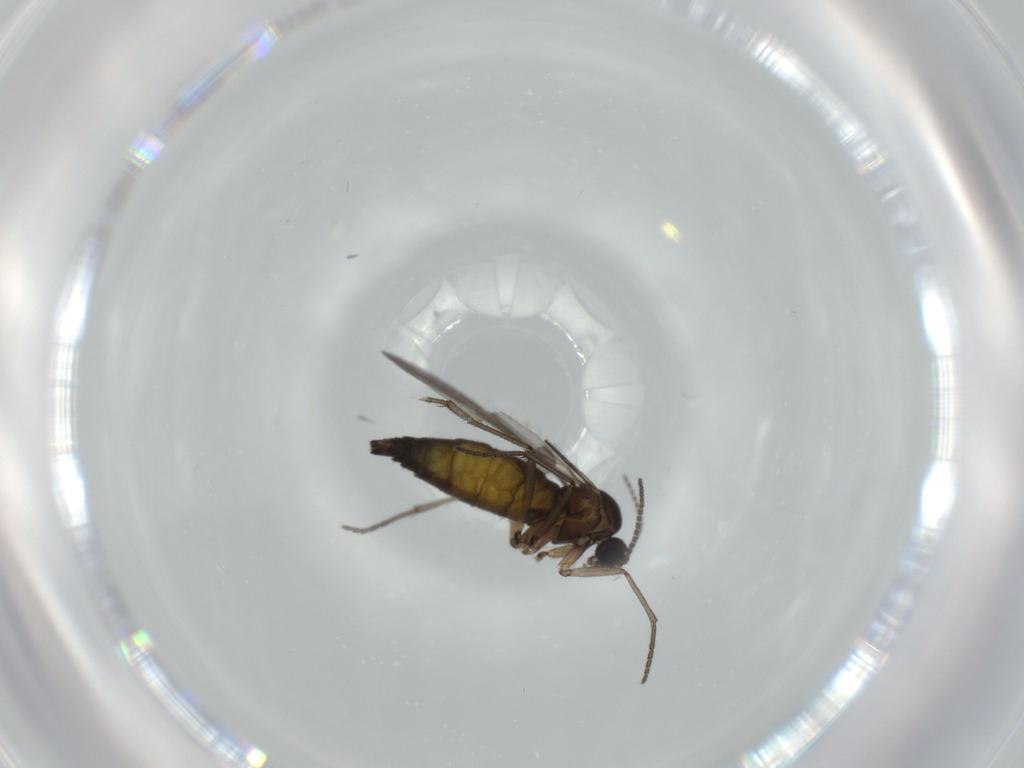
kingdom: Animalia
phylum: Arthropoda
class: Insecta
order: Diptera
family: Sciaridae
